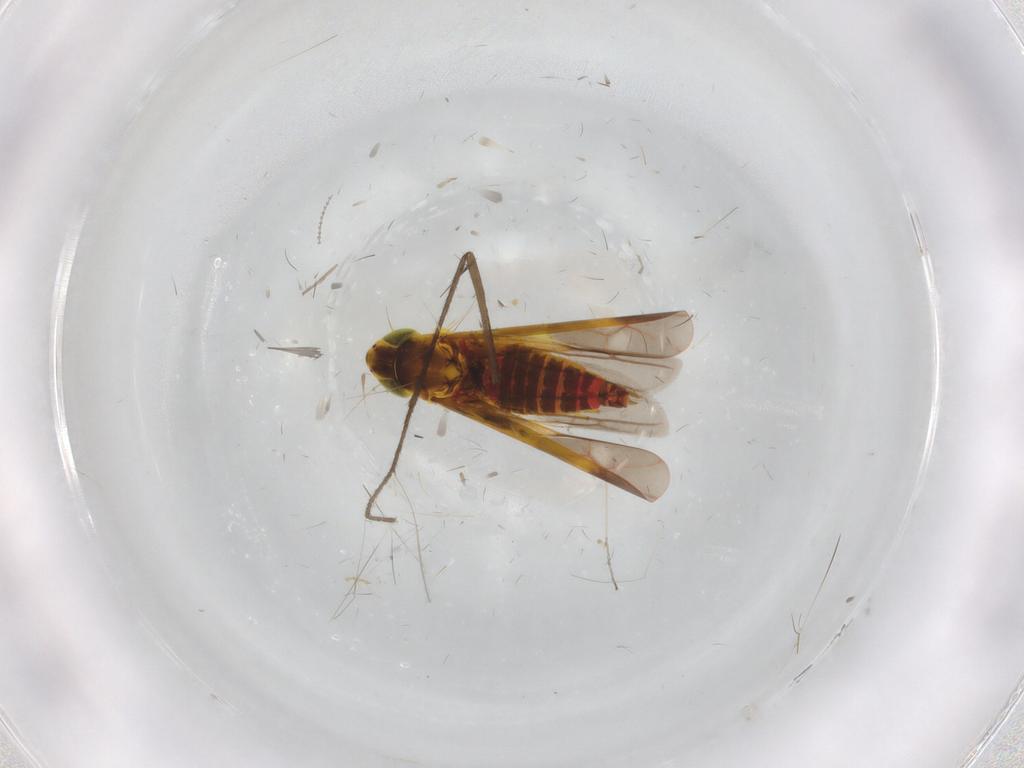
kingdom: Animalia
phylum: Arthropoda
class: Insecta
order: Hemiptera
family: Cicadellidae
